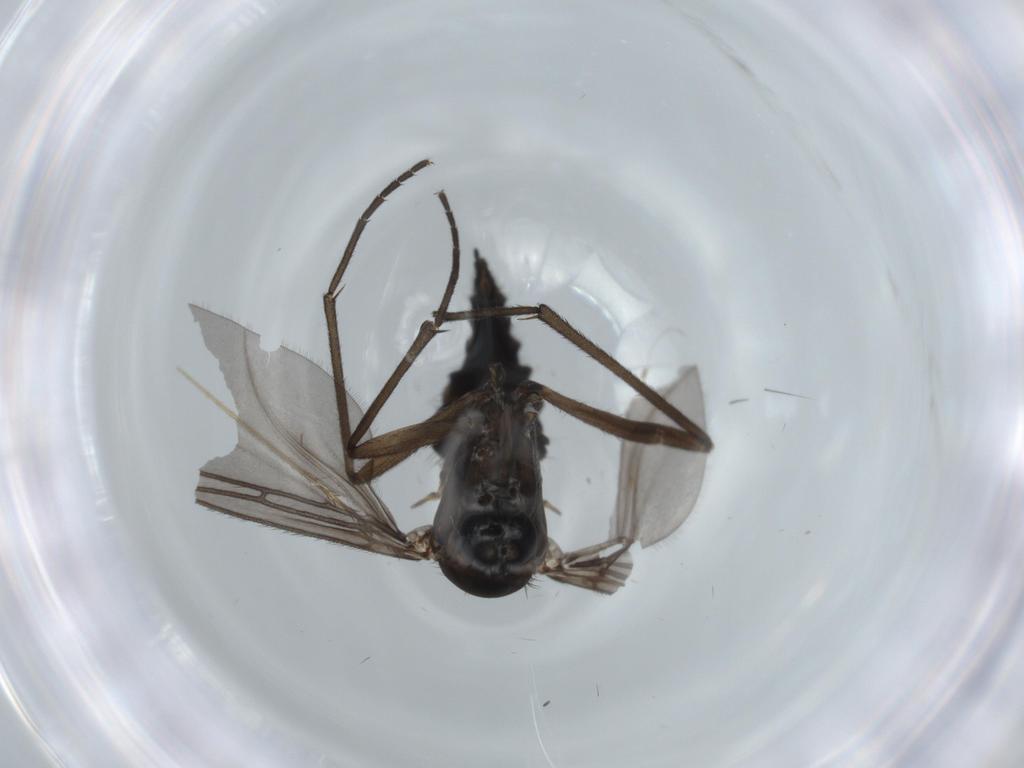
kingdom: Animalia
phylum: Arthropoda
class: Insecta
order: Diptera
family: Sciaridae
